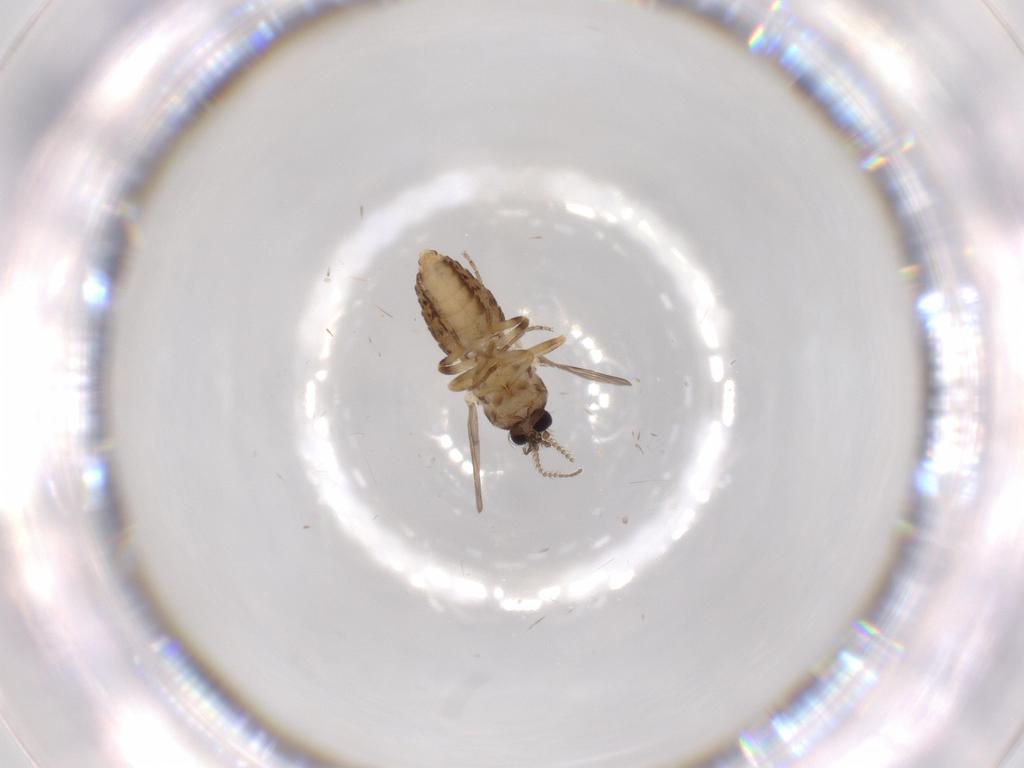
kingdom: Animalia
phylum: Arthropoda
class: Insecta
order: Diptera
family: Ceratopogonidae
